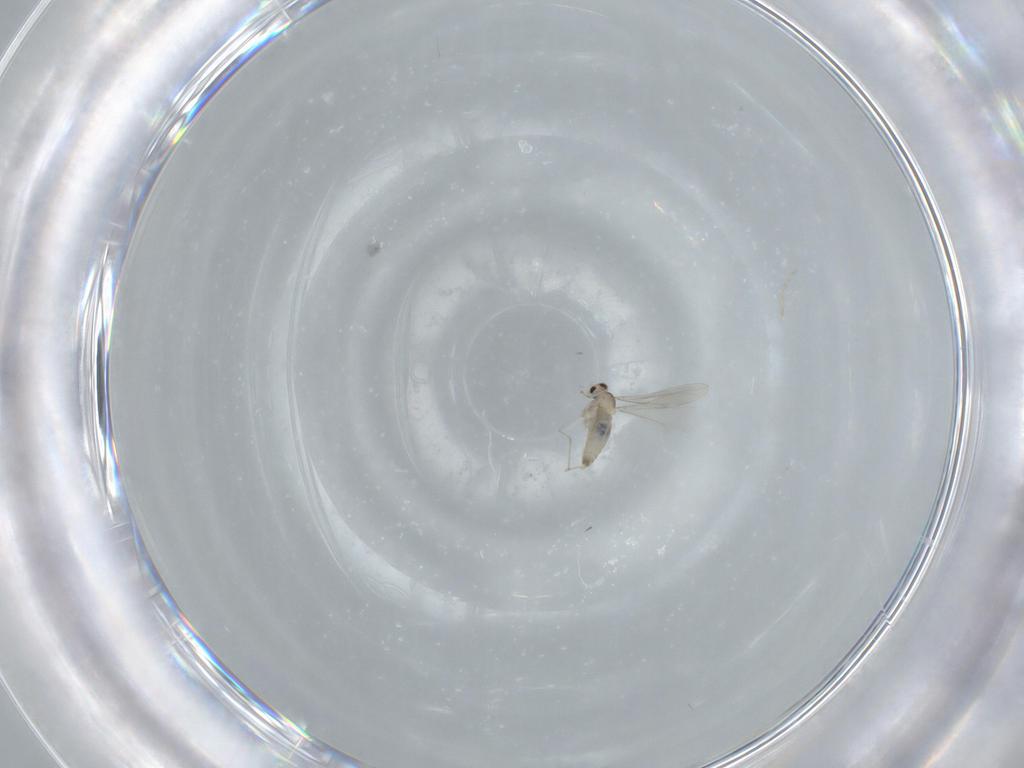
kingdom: Animalia
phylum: Arthropoda
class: Insecta
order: Diptera
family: Cecidomyiidae
